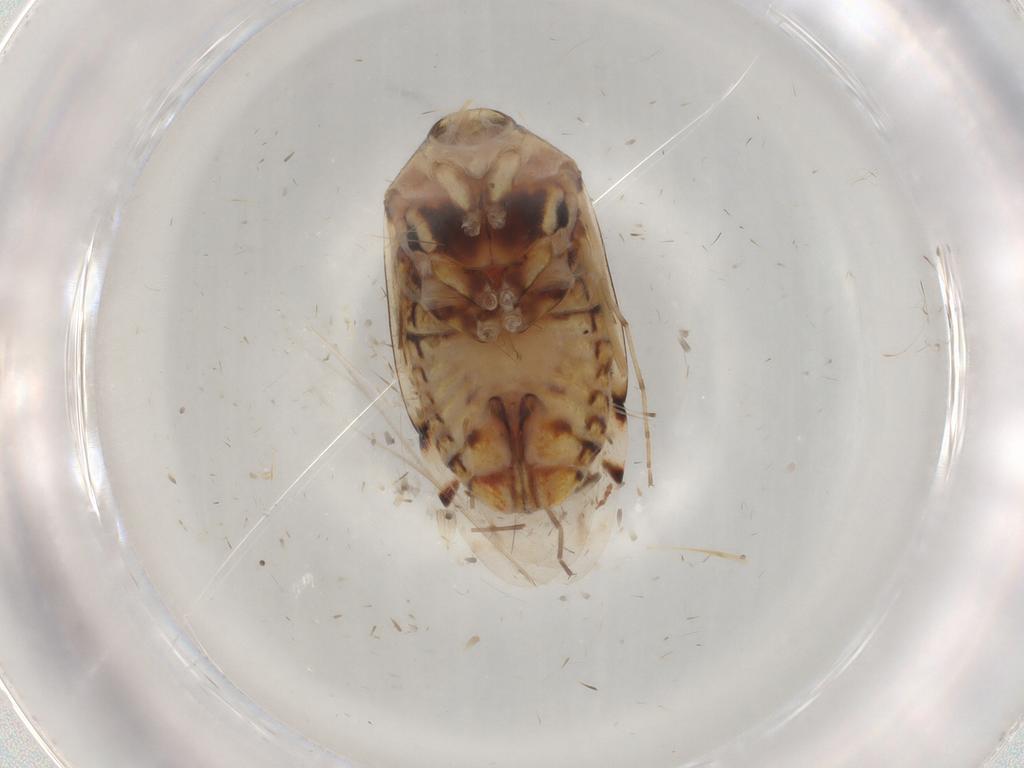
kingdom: Animalia
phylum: Arthropoda
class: Insecta
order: Hemiptera
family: Miridae
